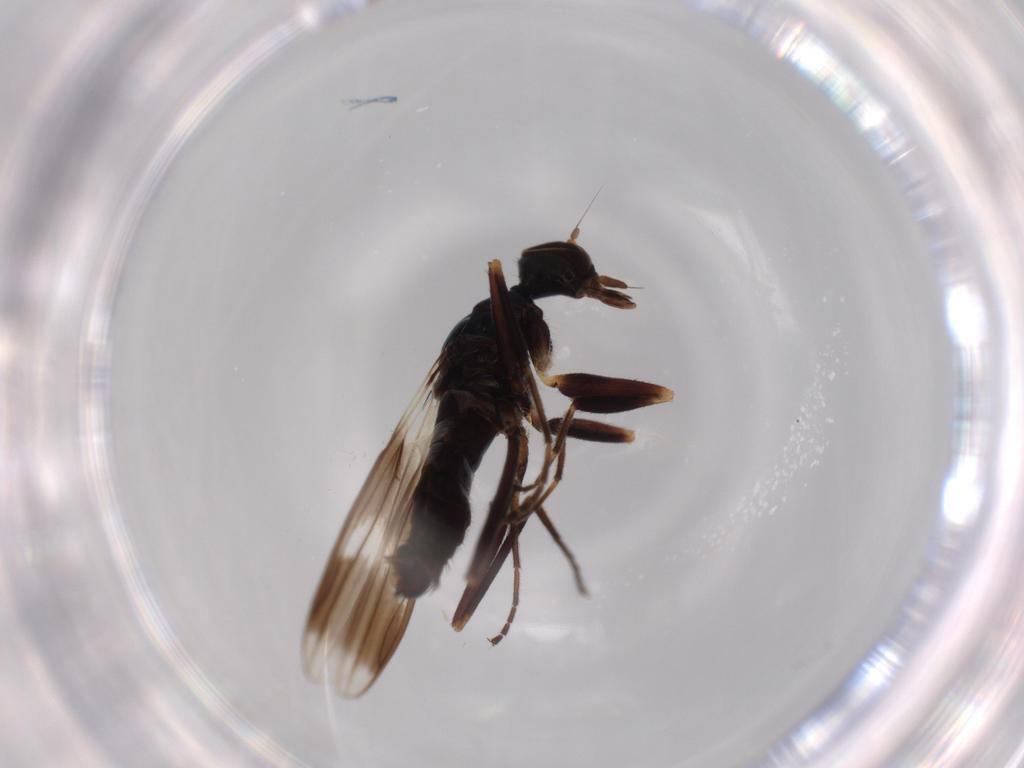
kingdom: Animalia
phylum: Arthropoda
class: Insecta
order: Diptera
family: Hybotidae
